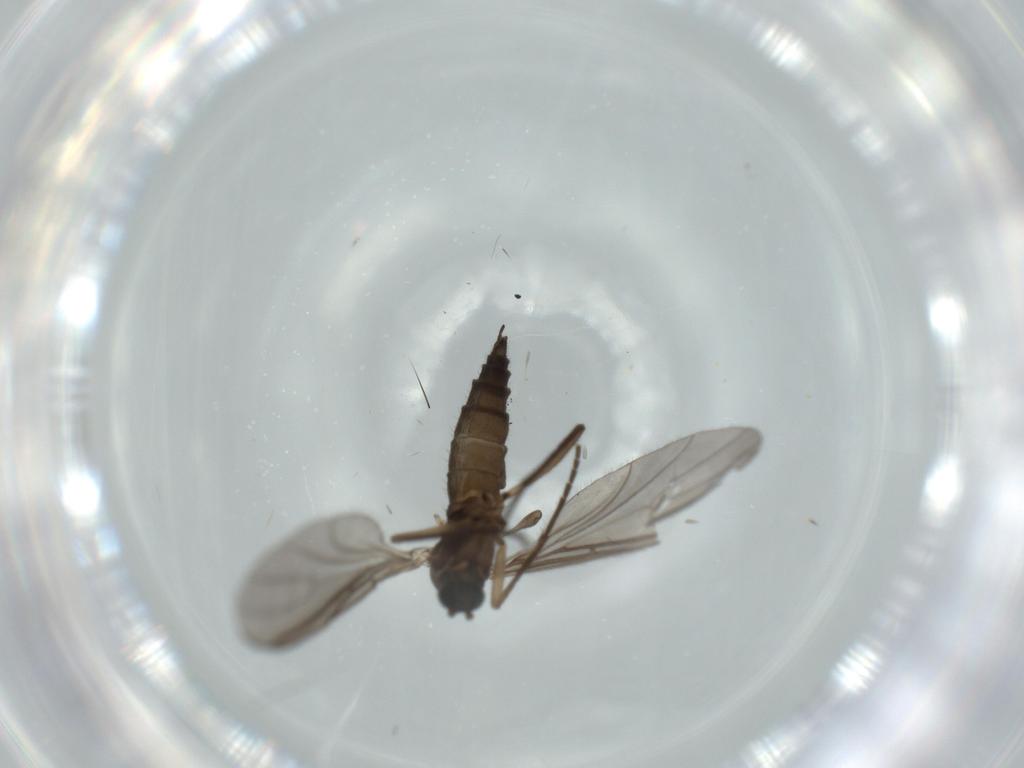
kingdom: Animalia
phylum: Arthropoda
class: Insecta
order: Diptera
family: Sciaridae
